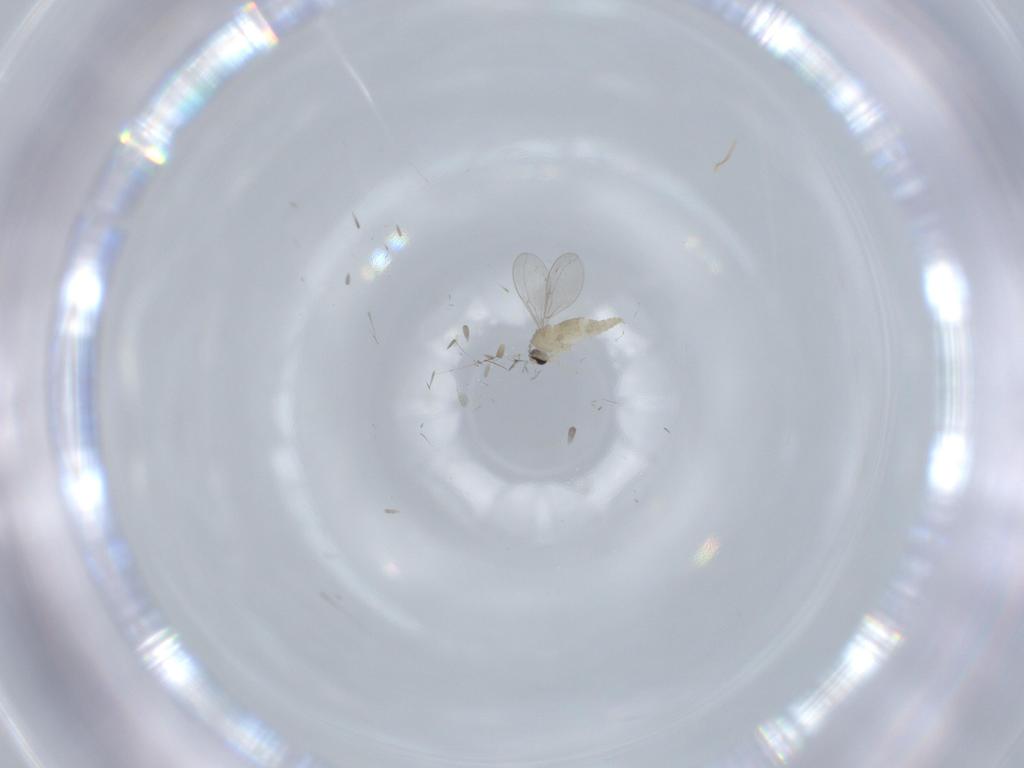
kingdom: Animalia
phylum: Arthropoda
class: Insecta
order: Diptera
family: Cecidomyiidae
